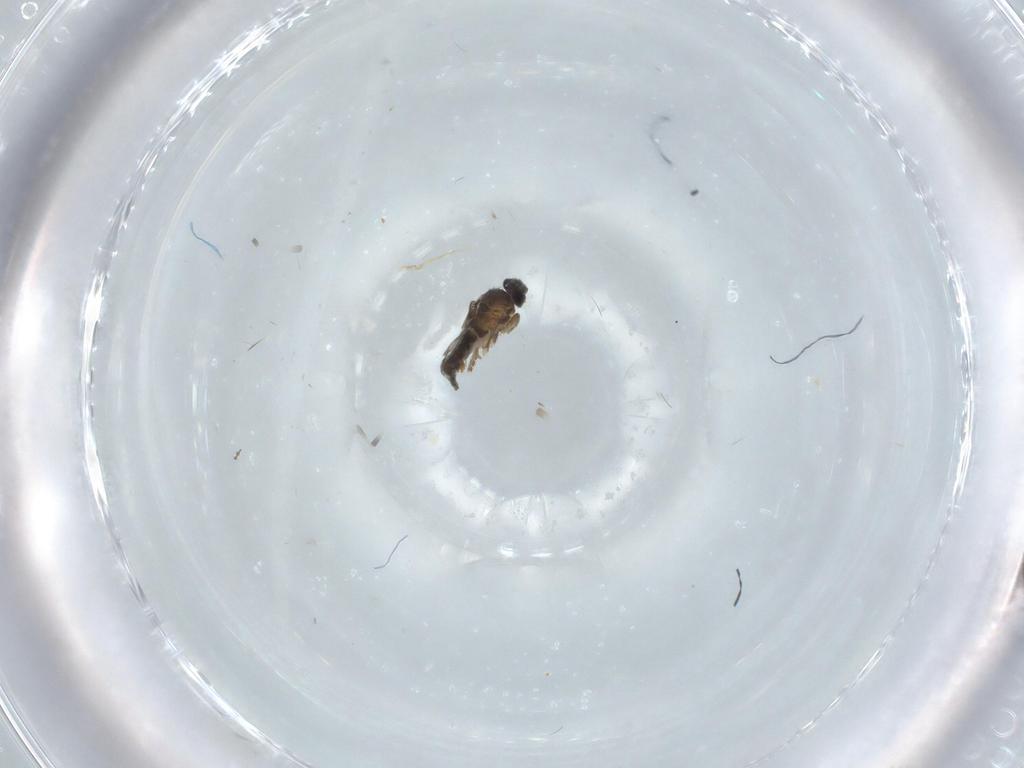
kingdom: Animalia
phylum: Arthropoda
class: Insecta
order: Diptera
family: Cecidomyiidae
